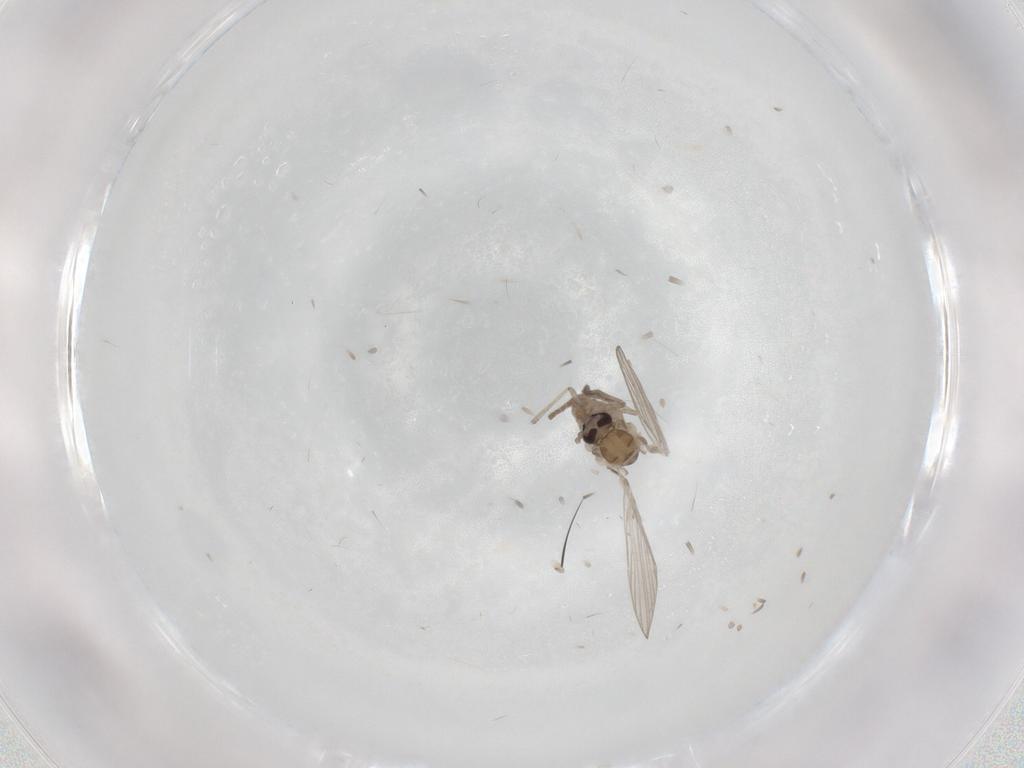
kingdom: Animalia
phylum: Arthropoda
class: Insecta
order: Diptera
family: Psychodidae
